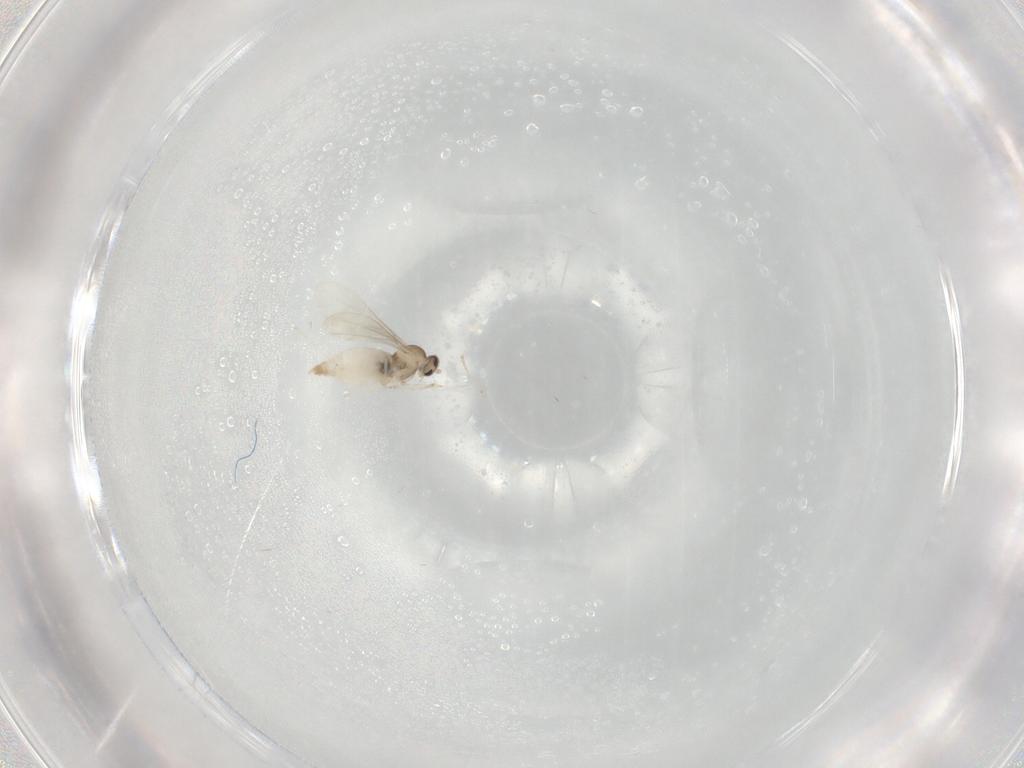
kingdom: Animalia
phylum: Arthropoda
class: Insecta
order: Diptera
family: Cecidomyiidae
